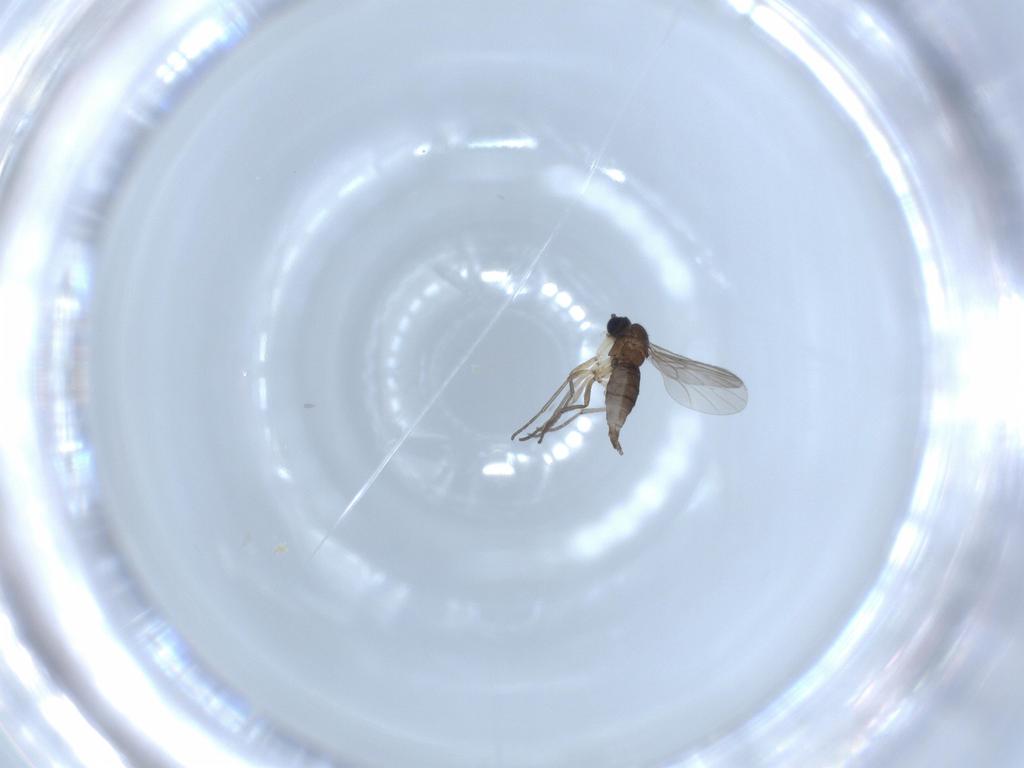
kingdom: Animalia
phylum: Arthropoda
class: Insecta
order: Diptera
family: Sciaridae
